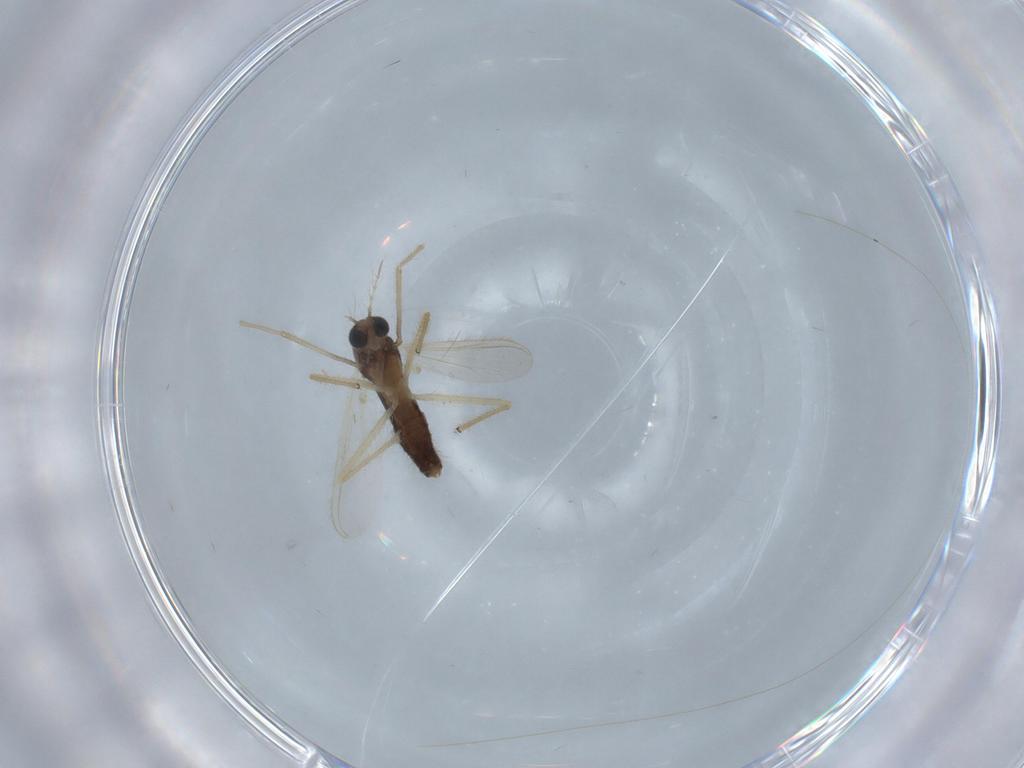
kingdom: Animalia
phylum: Arthropoda
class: Insecta
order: Diptera
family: Chironomidae
